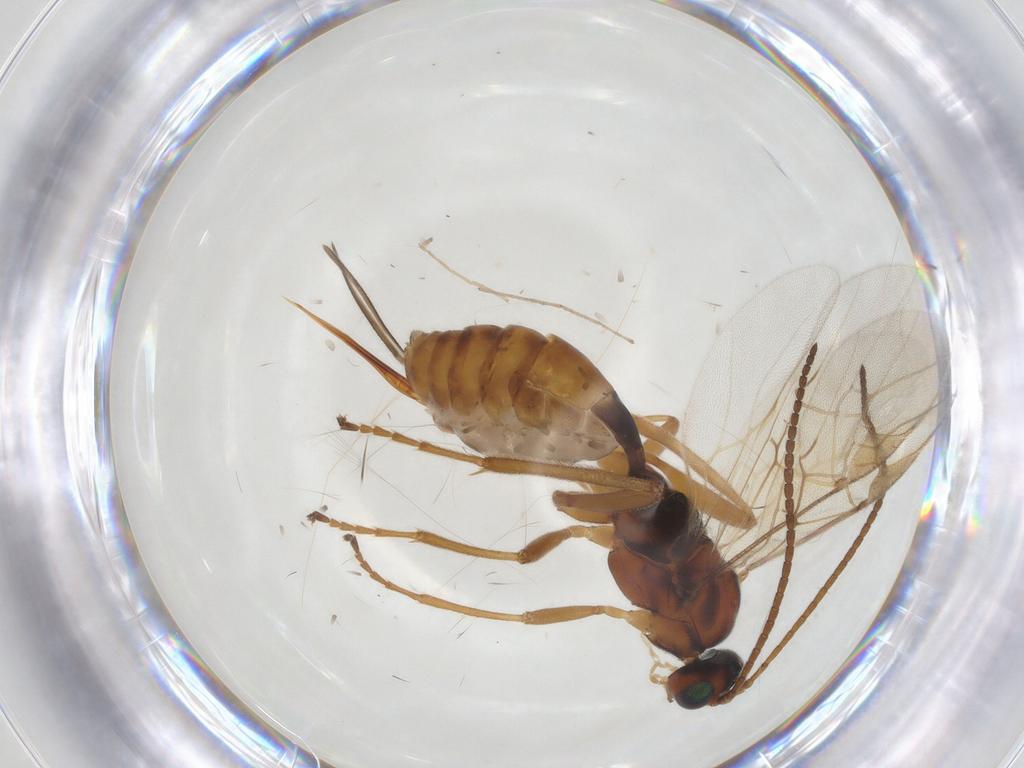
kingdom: Animalia
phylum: Arthropoda
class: Insecta
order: Hymenoptera
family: Braconidae
